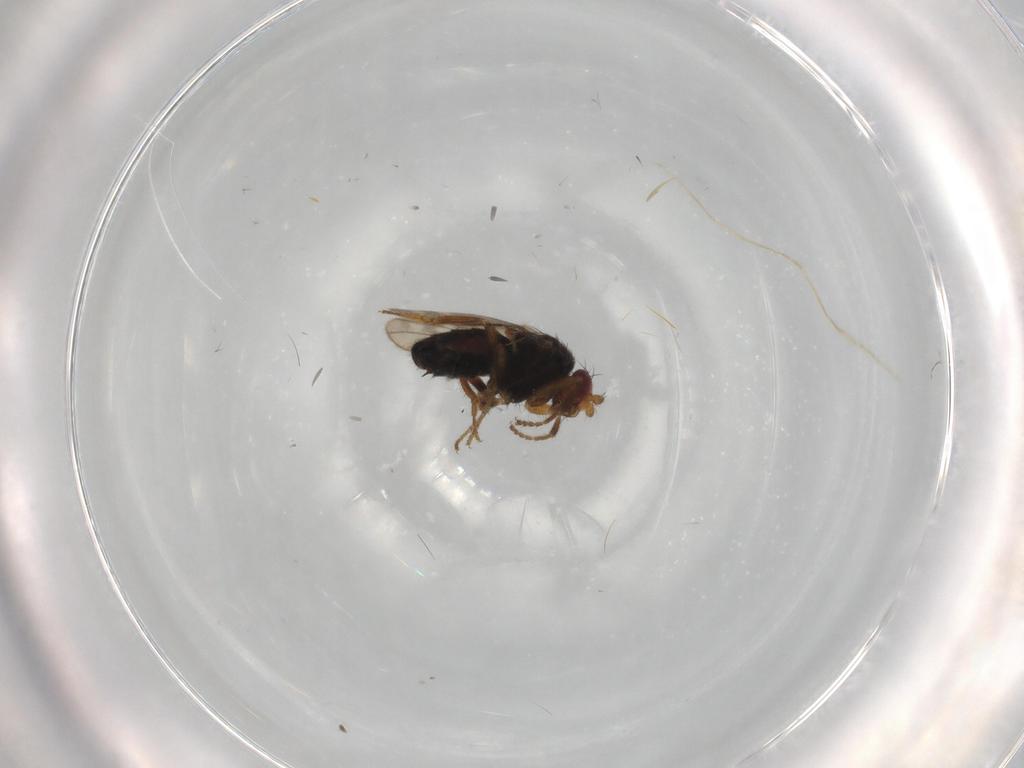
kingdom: Animalia
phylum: Arthropoda
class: Insecta
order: Diptera
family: Sphaeroceridae
